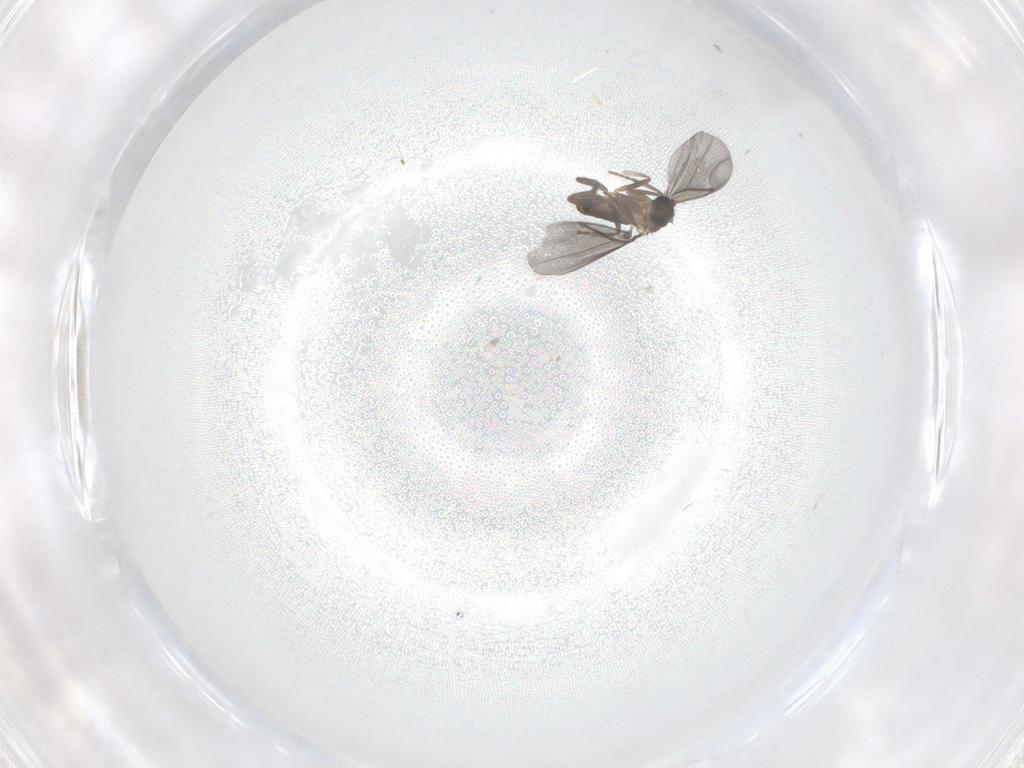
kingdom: Animalia
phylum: Arthropoda
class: Insecta
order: Diptera
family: Phoridae
